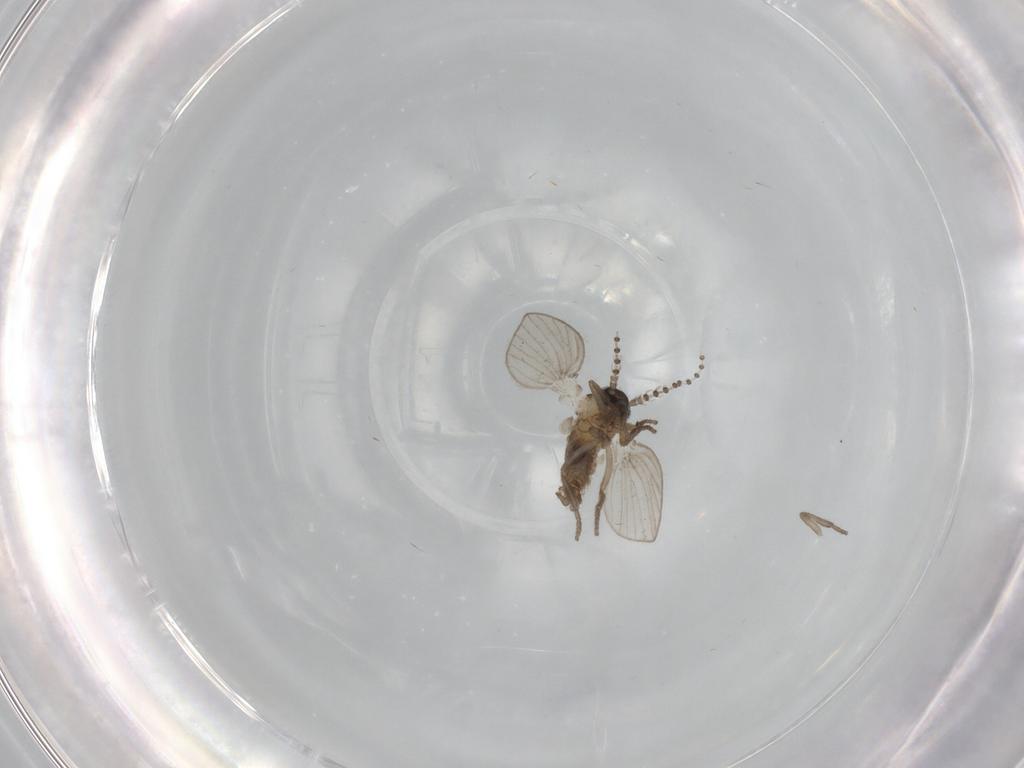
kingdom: Animalia
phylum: Arthropoda
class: Insecta
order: Diptera
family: Psychodidae
